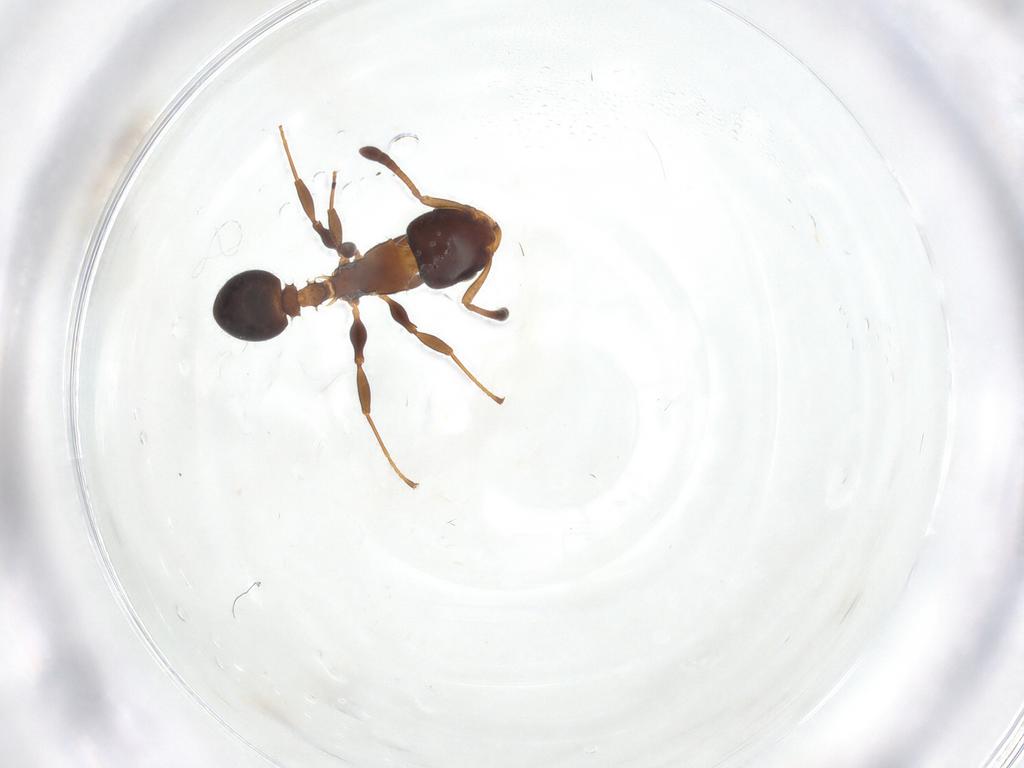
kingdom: Animalia
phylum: Arthropoda
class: Insecta
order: Hymenoptera
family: Formicidae
